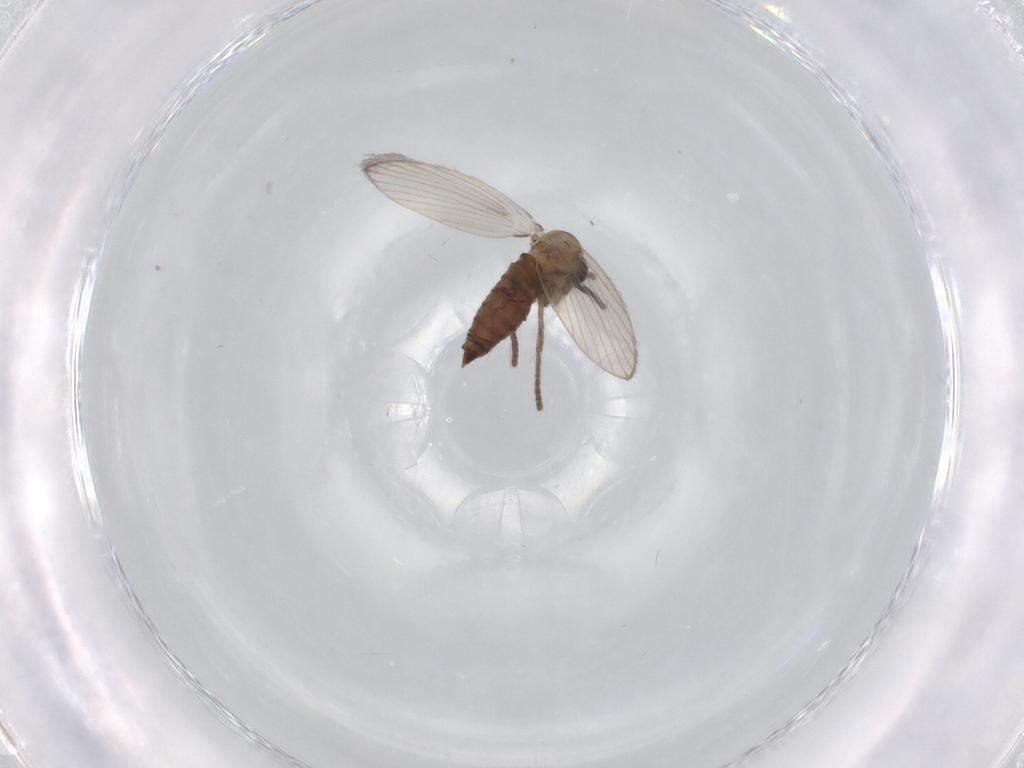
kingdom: Animalia
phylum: Arthropoda
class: Insecta
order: Diptera
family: Psychodidae
